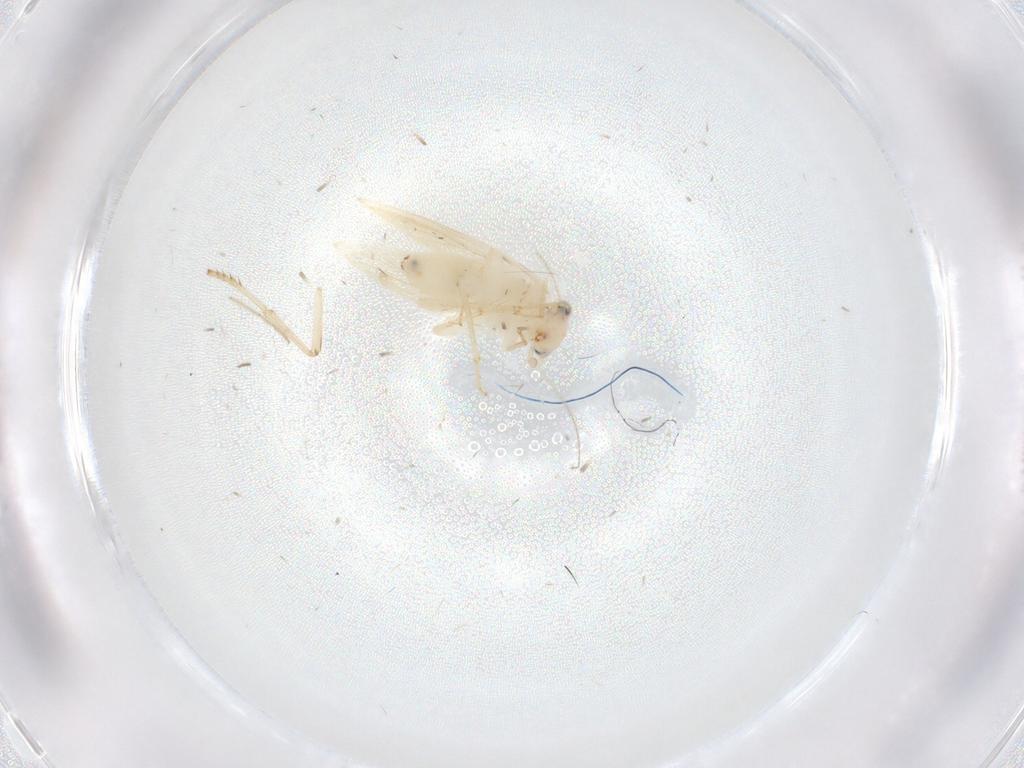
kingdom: Animalia
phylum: Arthropoda
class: Insecta
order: Psocodea
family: Lepidopsocidae
